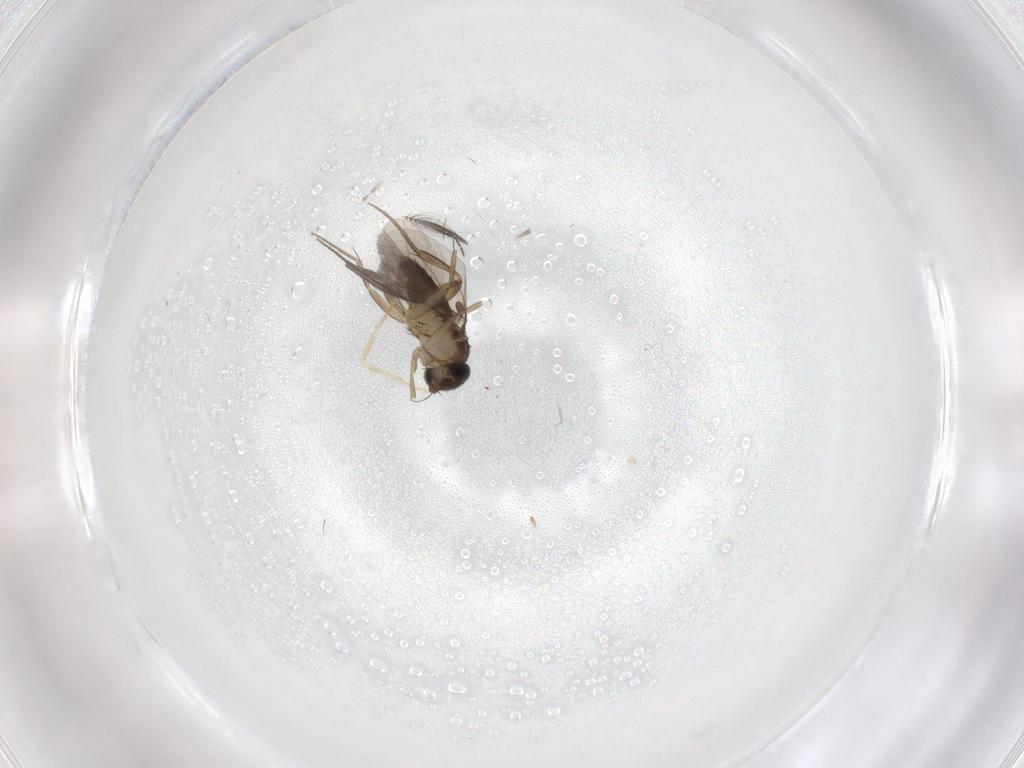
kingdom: Animalia
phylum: Arthropoda
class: Insecta
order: Diptera
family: Phoridae
